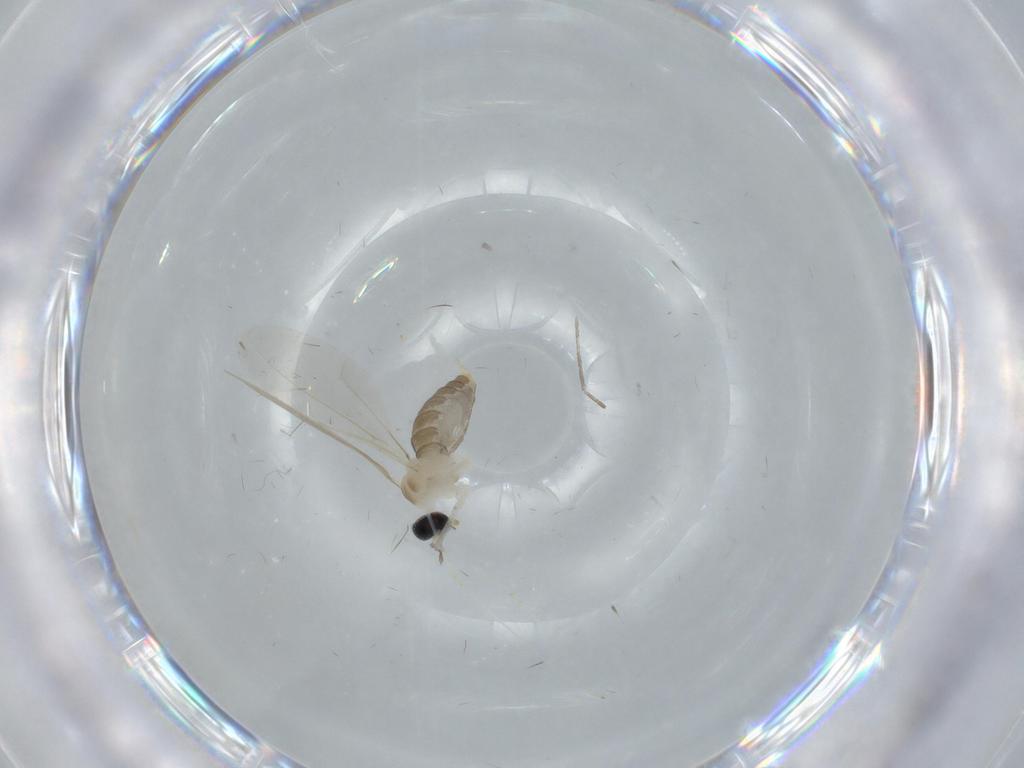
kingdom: Animalia
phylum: Arthropoda
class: Insecta
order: Diptera
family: Cecidomyiidae
